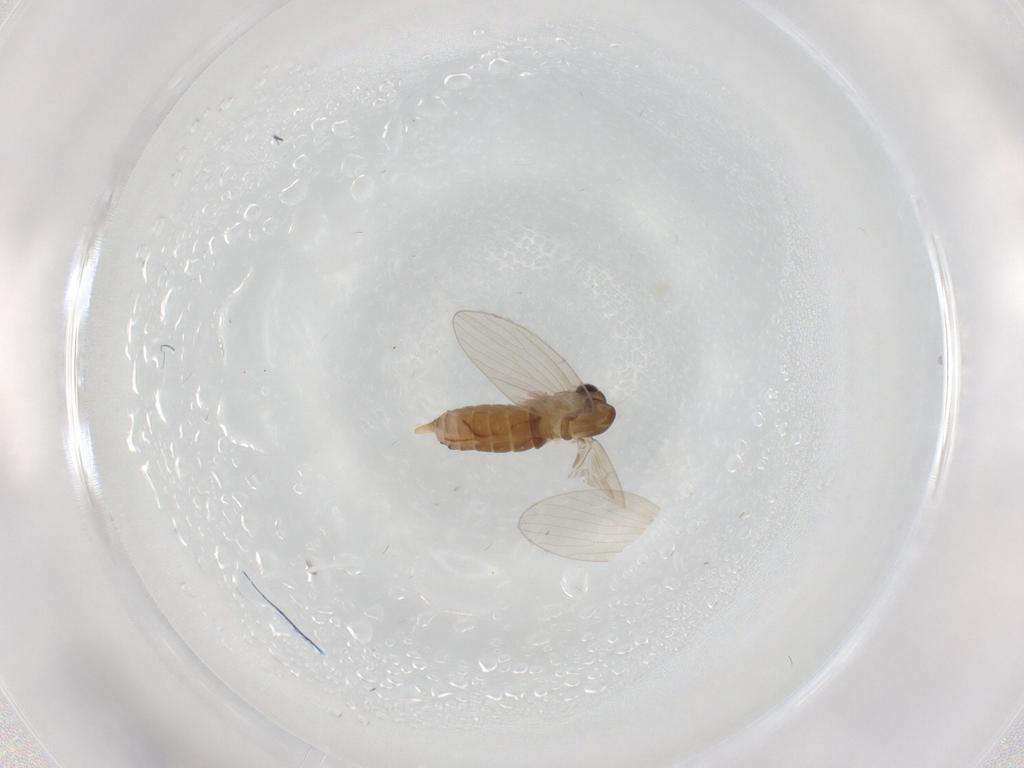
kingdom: Animalia
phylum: Arthropoda
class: Insecta
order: Diptera
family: Psychodidae
